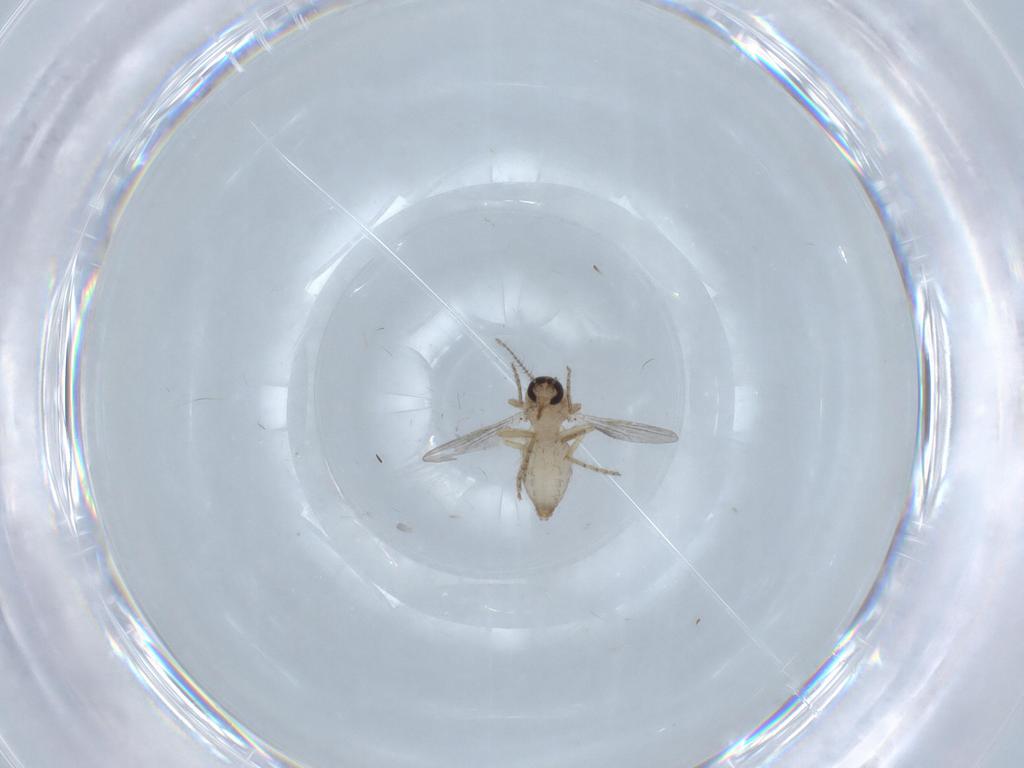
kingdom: Animalia
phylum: Arthropoda
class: Insecta
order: Diptera
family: Ceratopogonidae
